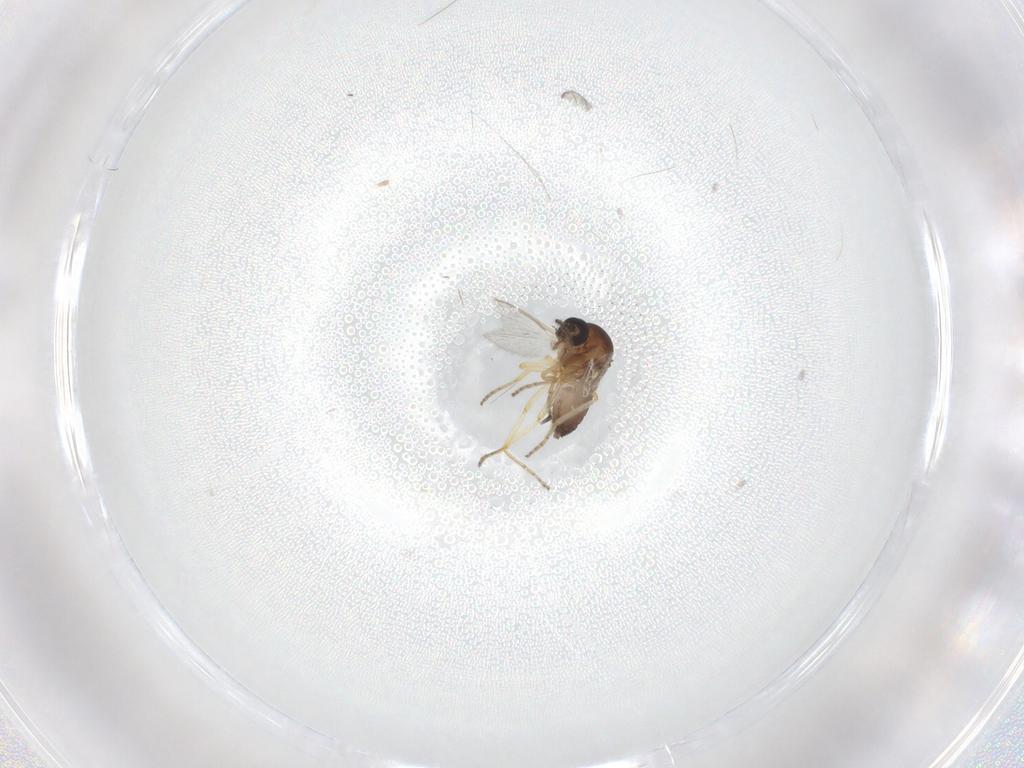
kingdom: Animalia
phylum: Arthropoda
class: Insecta
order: Diptera
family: Ceratopogonidae
